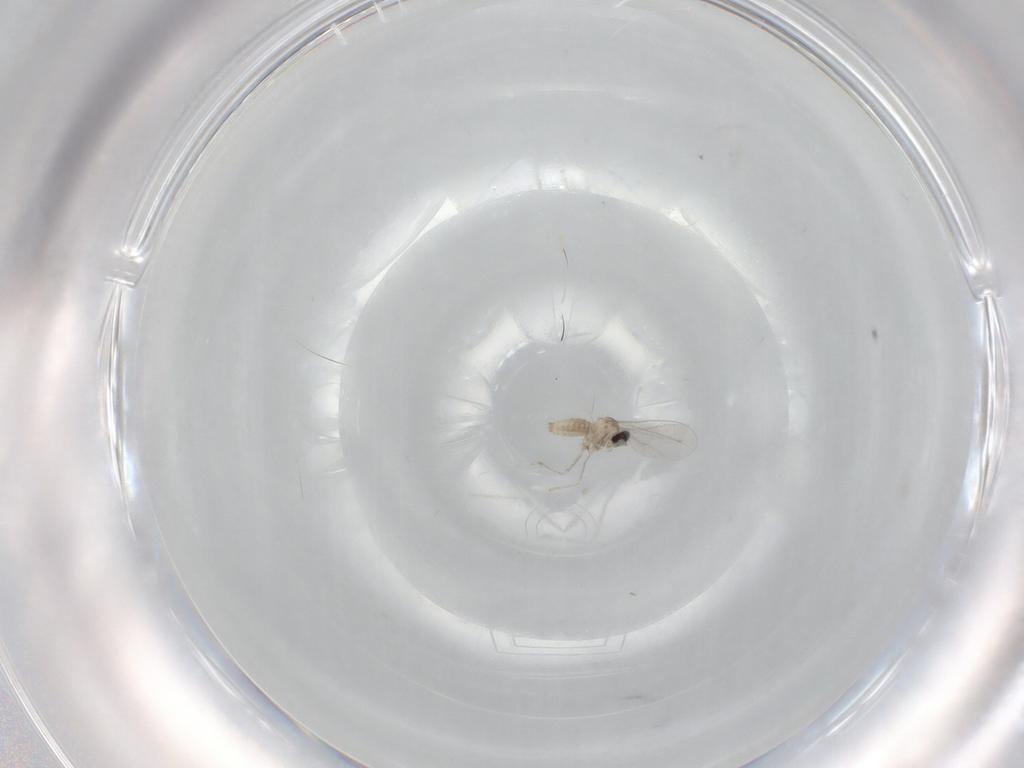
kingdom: Animalia
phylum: Arthropoda
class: Insecta
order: Diptera
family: Cecidomyiidae
